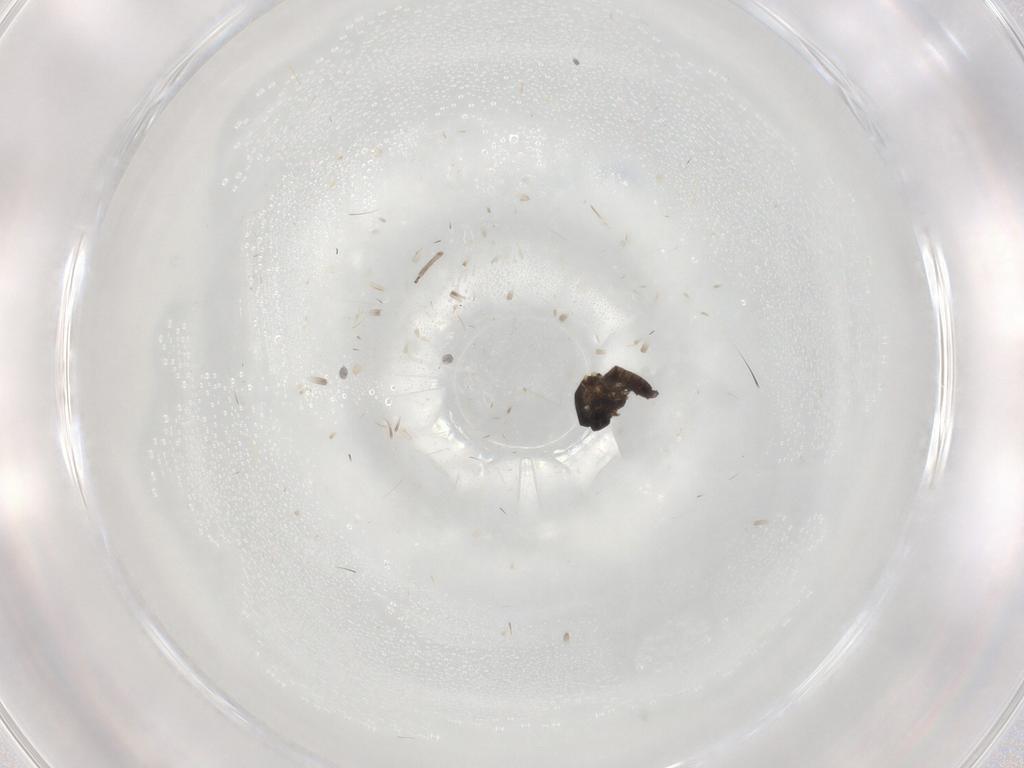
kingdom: Animalia
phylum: Arthropoda
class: Insecta
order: Diptera
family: Ceratopogonidae
